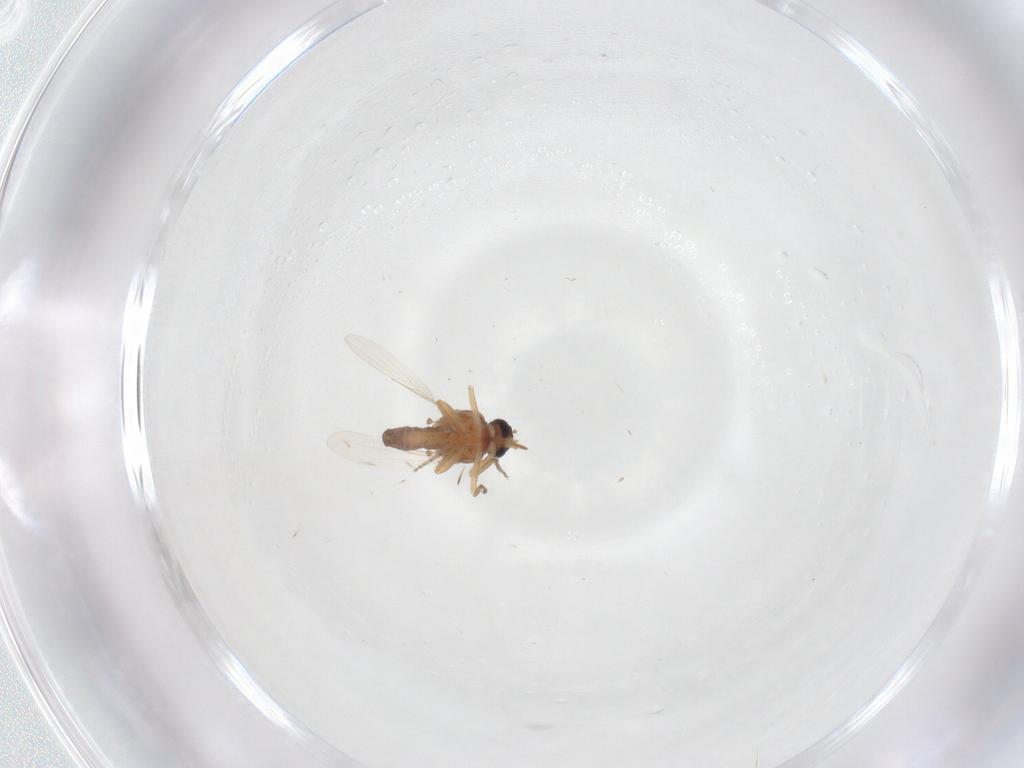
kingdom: Animalia
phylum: Arthropoda
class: Insecta
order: Diptera
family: Ceratopogonidae
